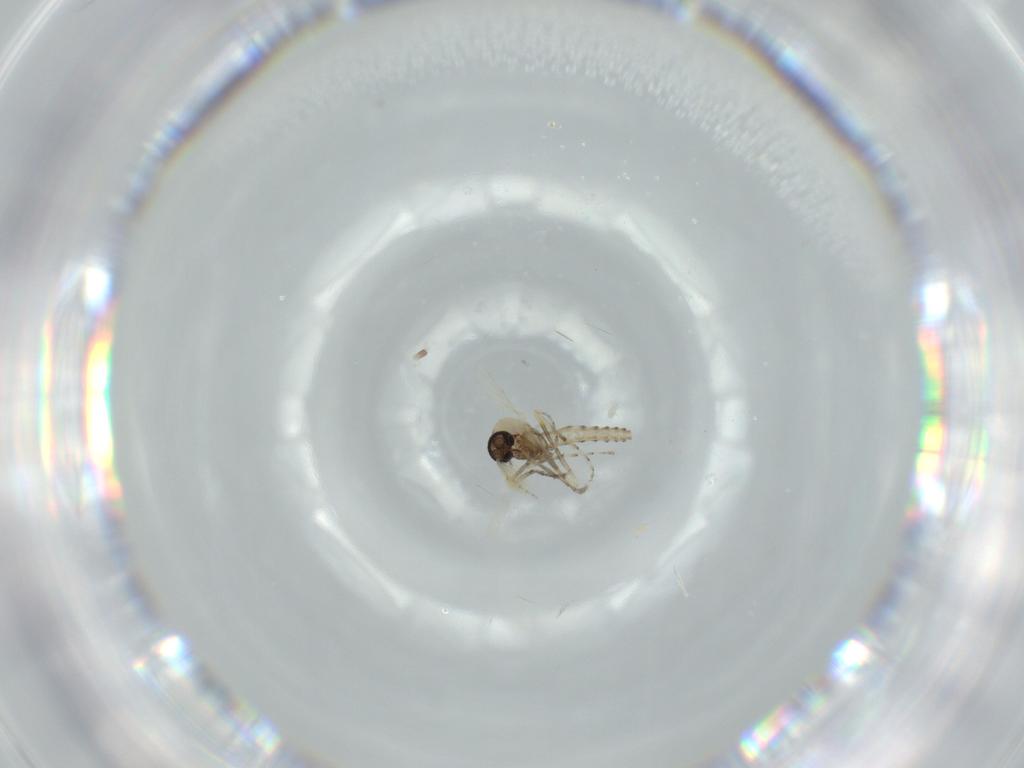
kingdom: Animalia
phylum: Arthropoda
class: Insecta
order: Diptera
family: Ceratopogonidae
